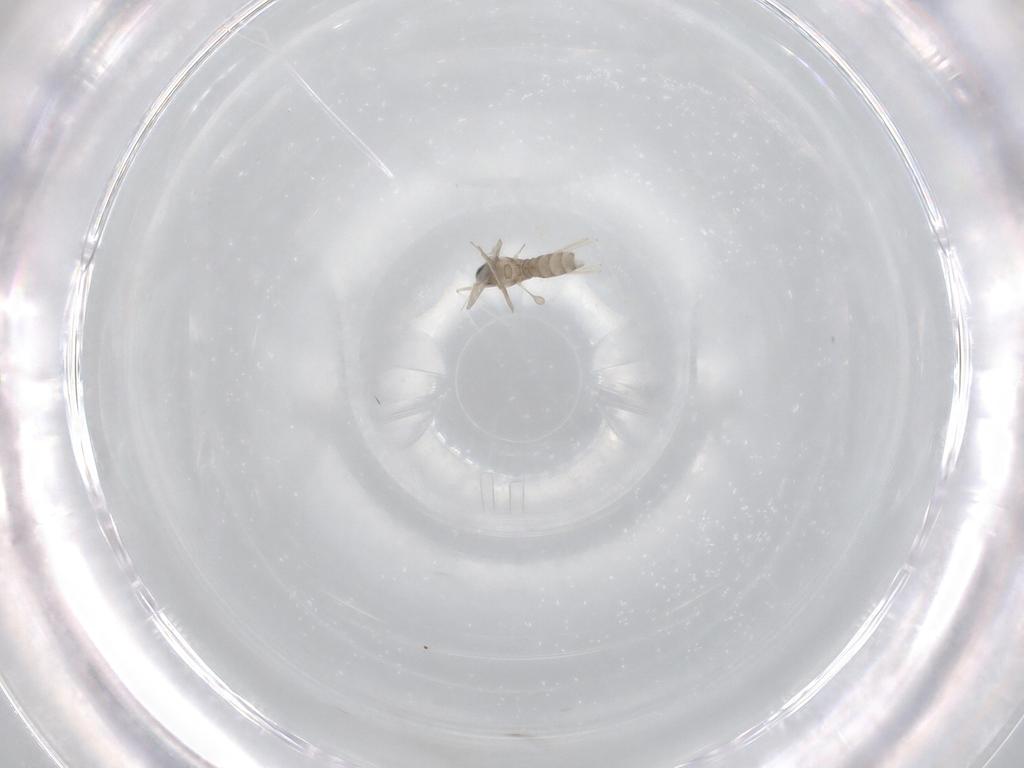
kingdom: Animalia
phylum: Arthropoda
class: Insecta
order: Diptera
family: Cecidomyiidae
